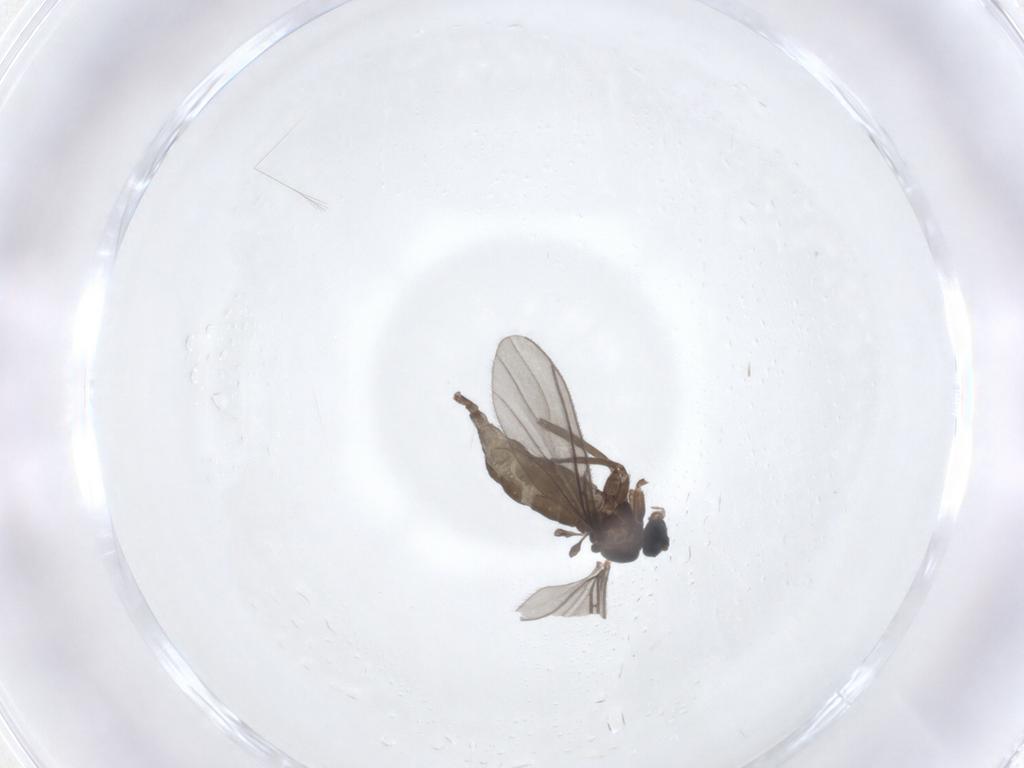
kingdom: Animalia
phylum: Arthropoda
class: Insecta
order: Diptera
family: Sciaridae
